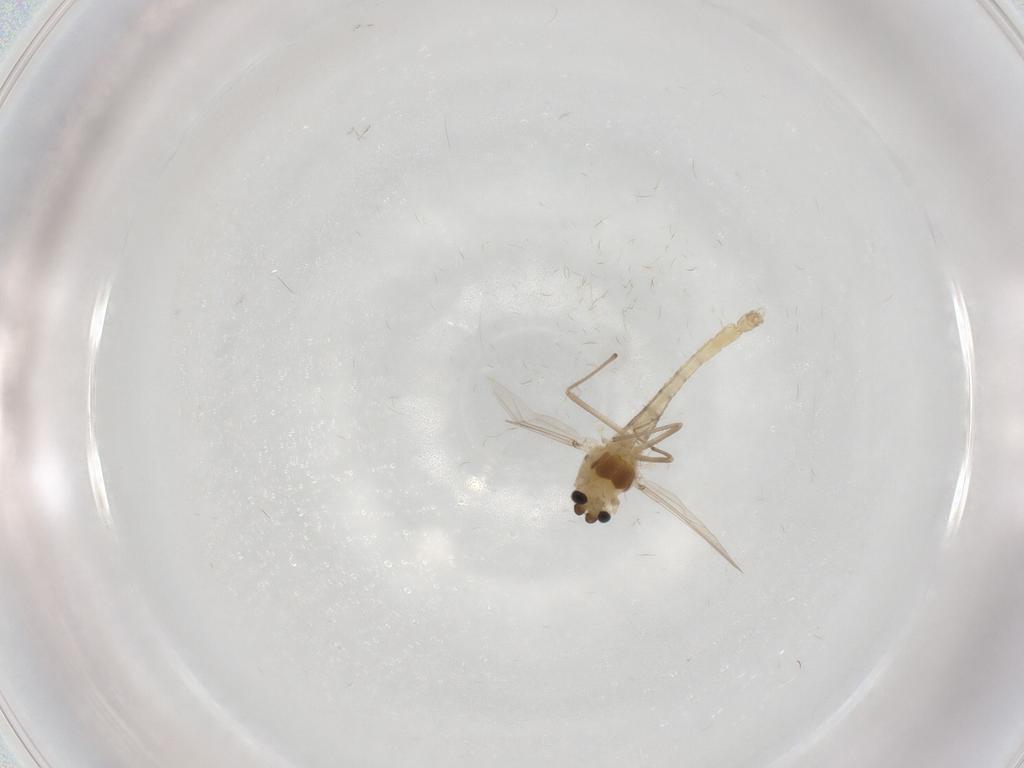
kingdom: Animalia
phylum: Arthropoda
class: Insecta
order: Diptera
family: Chironomidae
